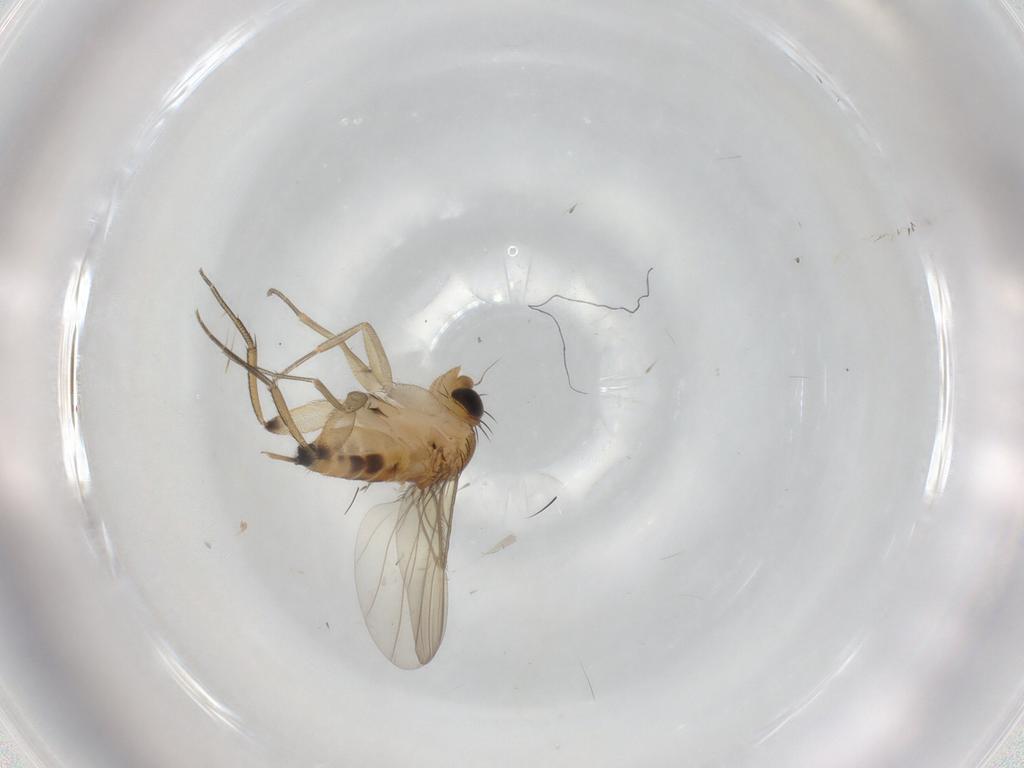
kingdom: Animalia
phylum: Arthropoda
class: Insecta
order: Diptera
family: Phoridae
